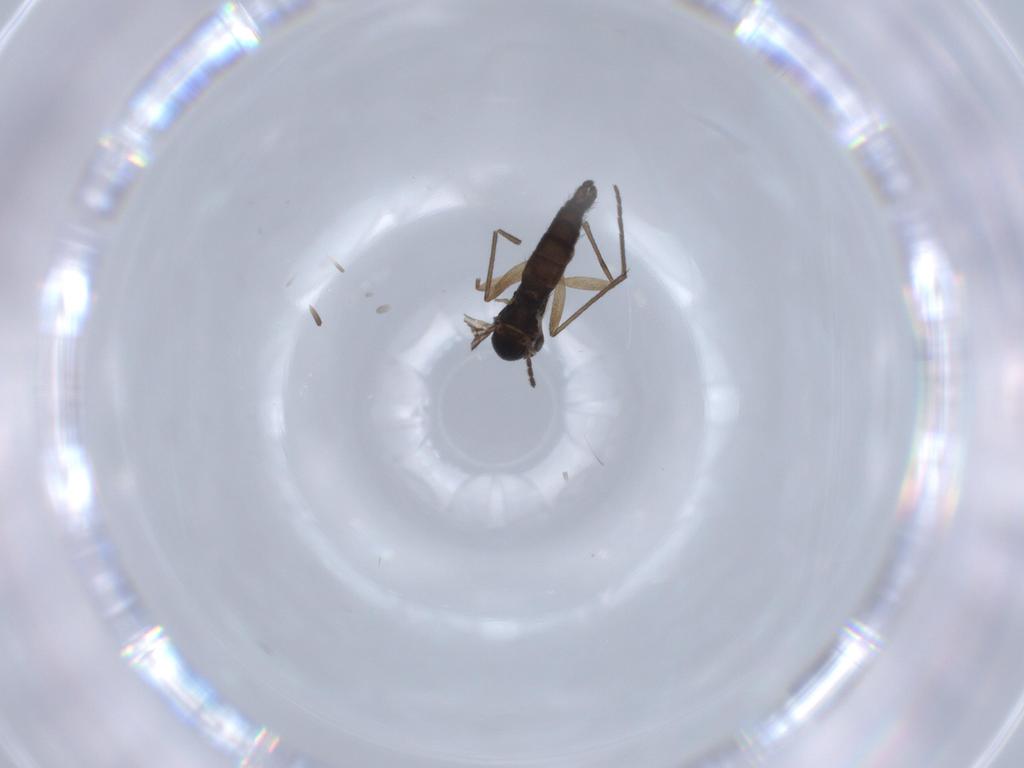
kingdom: Animalia
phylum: Arthropoda
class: Insecta
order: Diptera
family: Sciaridae
